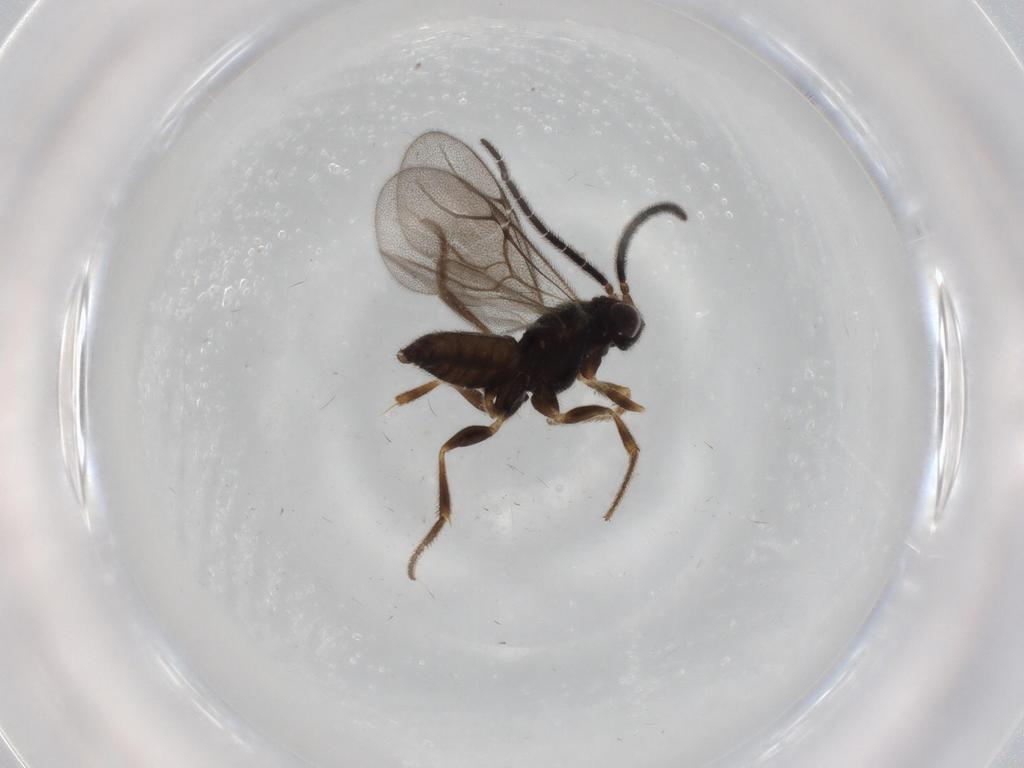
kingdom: Animalia
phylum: Arthropoda
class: Insecta
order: Hymenoptera
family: Dryinidae
